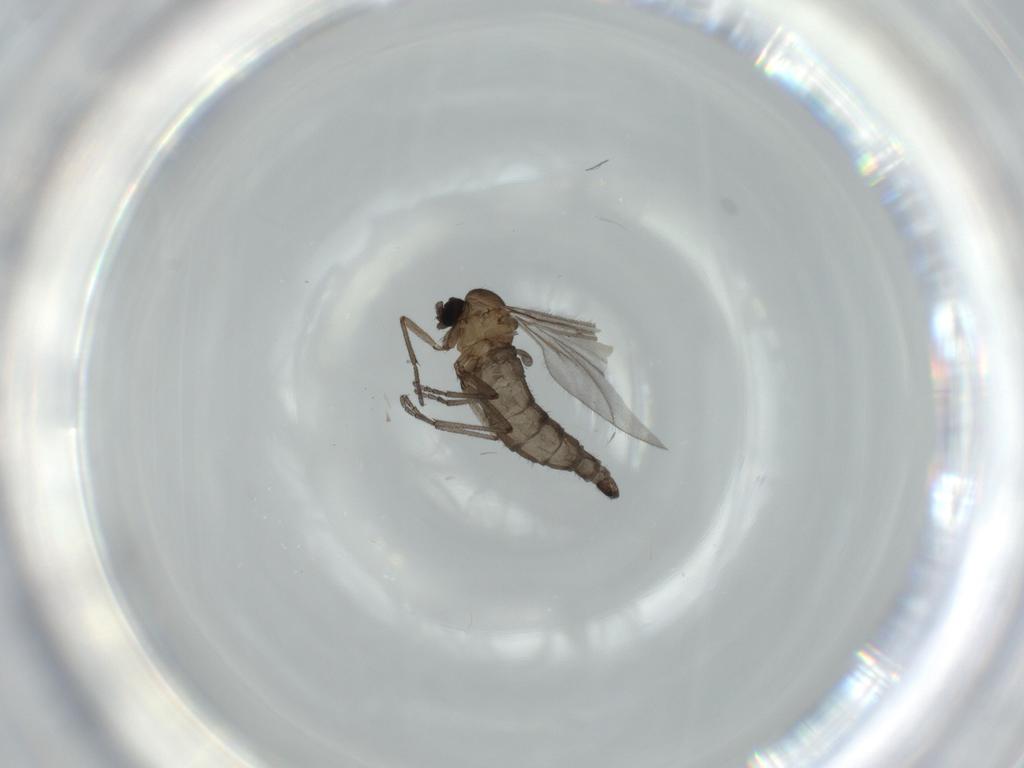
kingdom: Animalia
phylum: Arthropoda
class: Insecta
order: Diptera
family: Sciaridae
